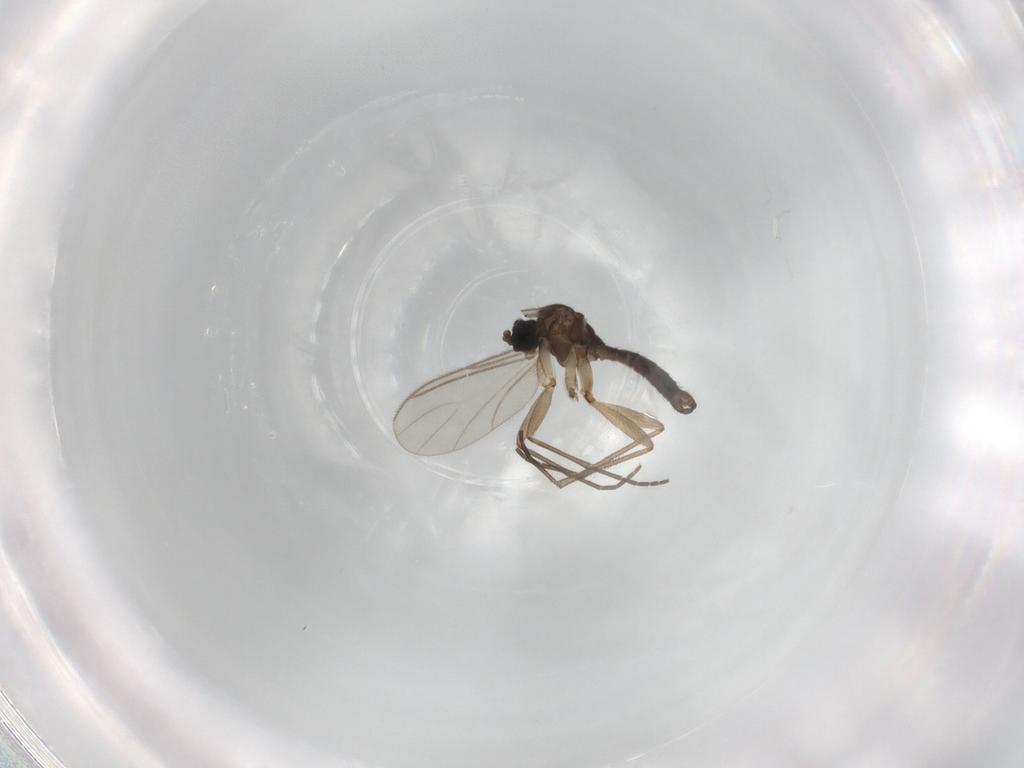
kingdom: Animalia
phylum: Arthropoda
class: Insecta
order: Diptera
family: Sciaridae
